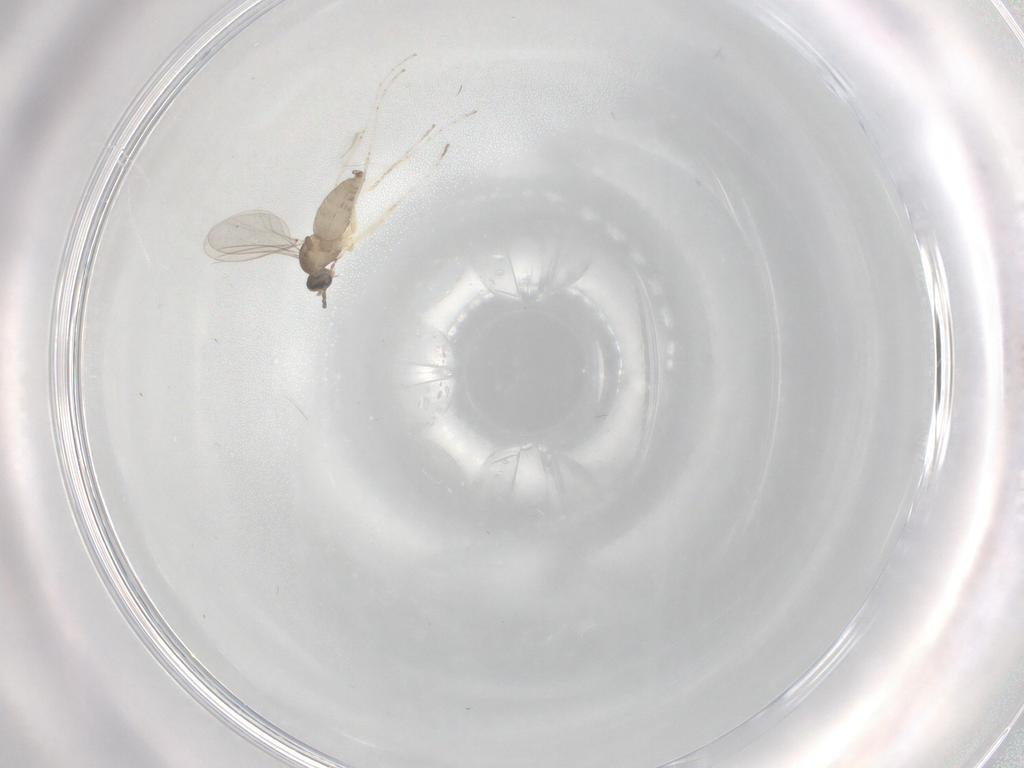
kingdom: Animalia
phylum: Arthropoda
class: Insecta
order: Diptera
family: Cecidomyiidae
